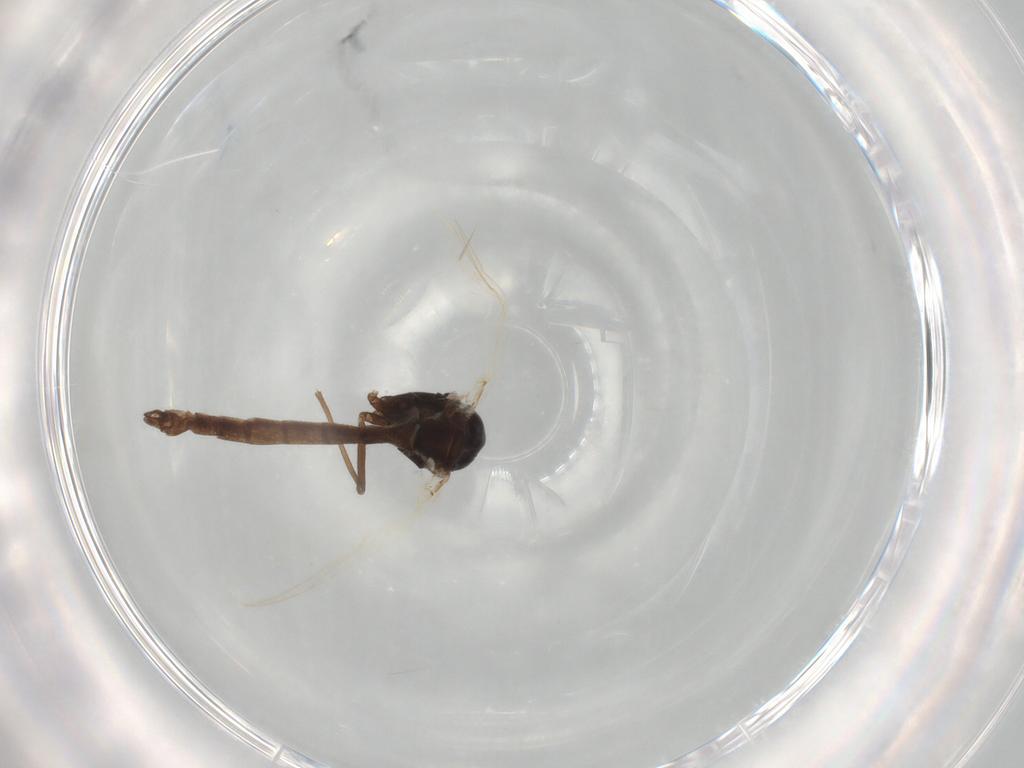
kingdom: Animalia
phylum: Arthropoda
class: Insecta
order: Diptera
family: Chironomidae
